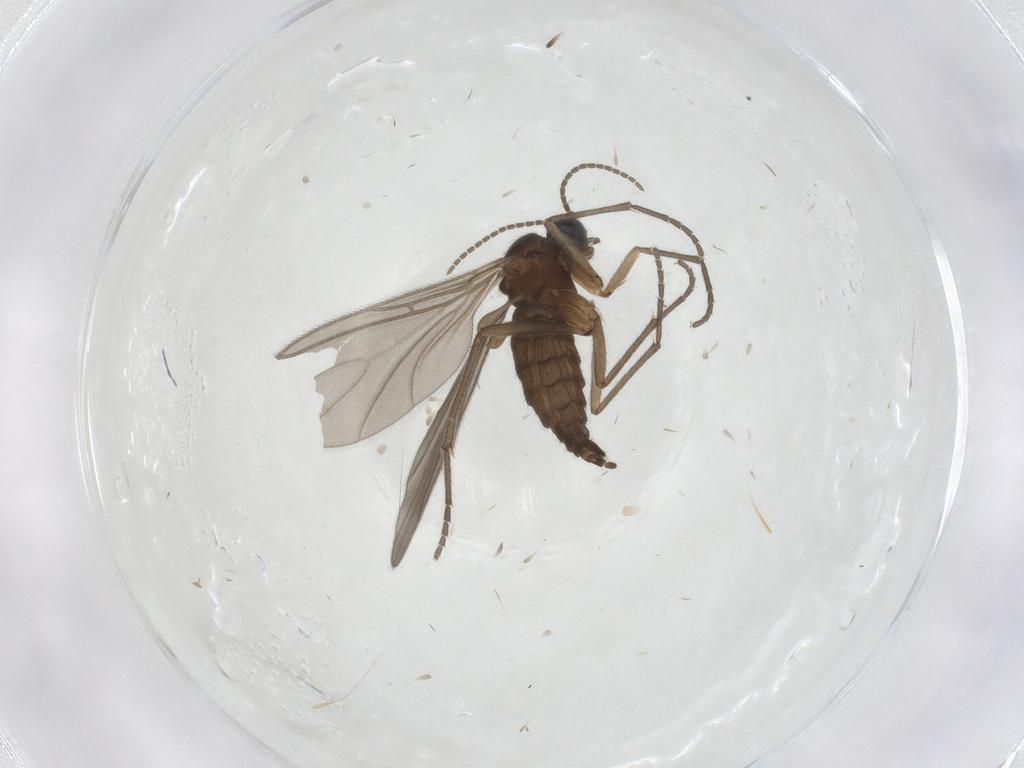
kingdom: Animalia
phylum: Arthropoda
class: Insecta
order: Diptera
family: Sciaridae
